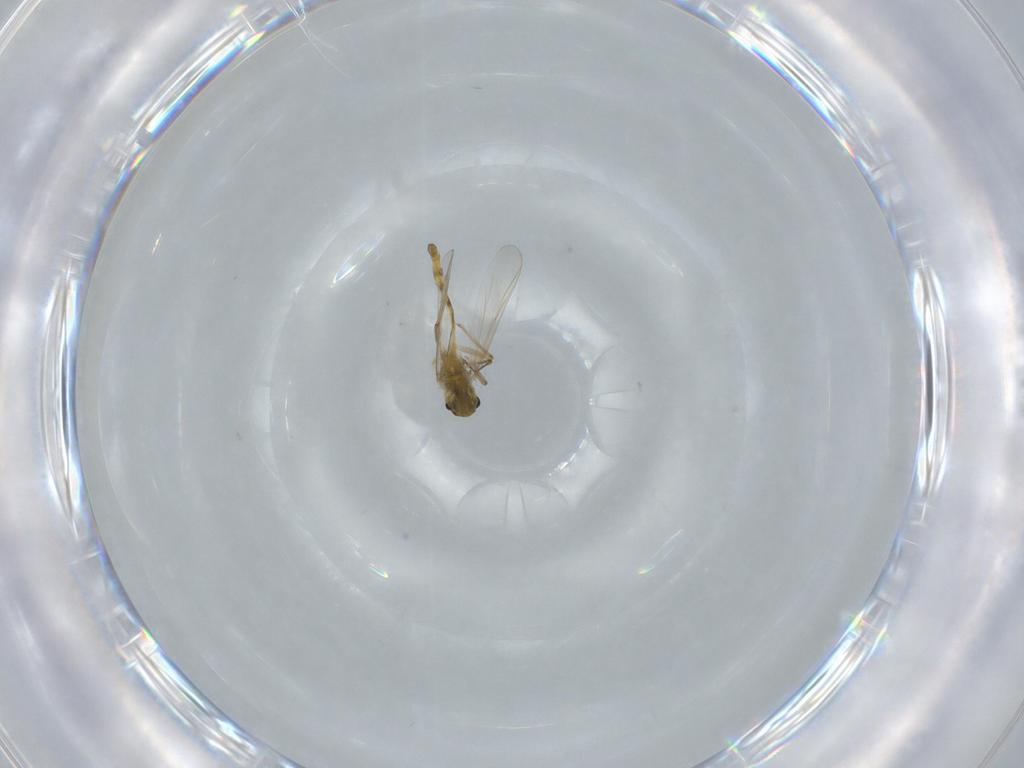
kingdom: Animalia
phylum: Arthropoda
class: Insecta
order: Diptera
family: Chironomidae
